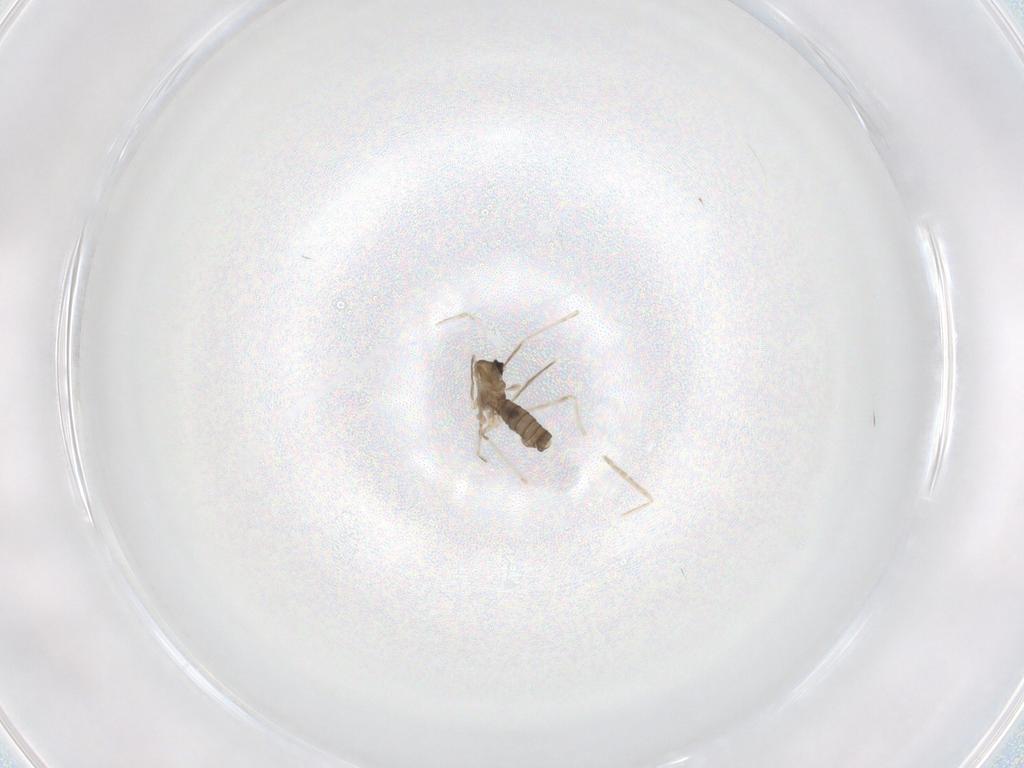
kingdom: Animalia
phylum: Arthropoda
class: Insecta
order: Diptera
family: Cecidomyiidae
